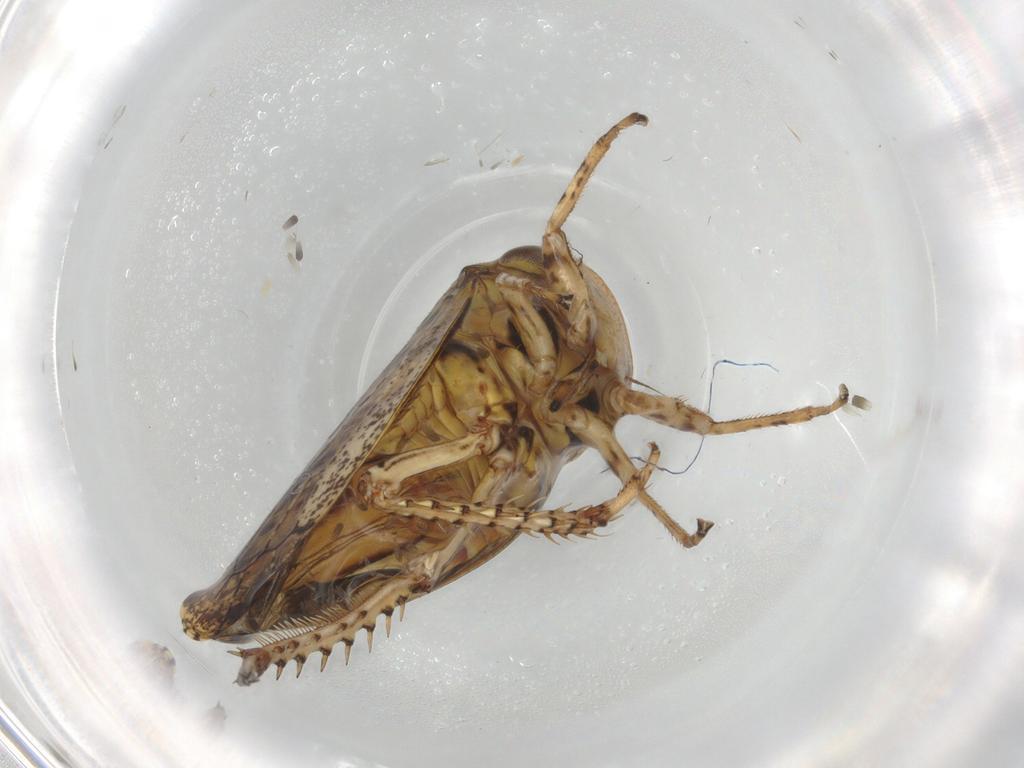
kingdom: Animalia
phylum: Arthropoda
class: Insecta
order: Hemiptera
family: Cicadellidae
